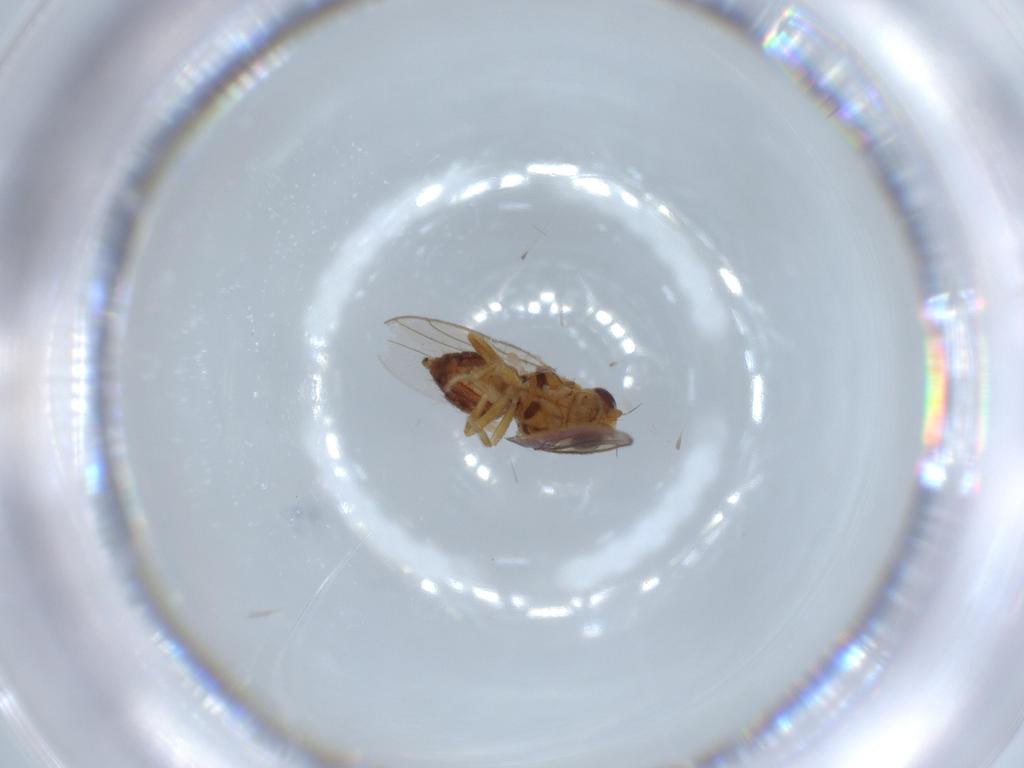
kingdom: Animalia
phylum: Arthropoda
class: Insecta
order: Diptera
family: Chloropidae
